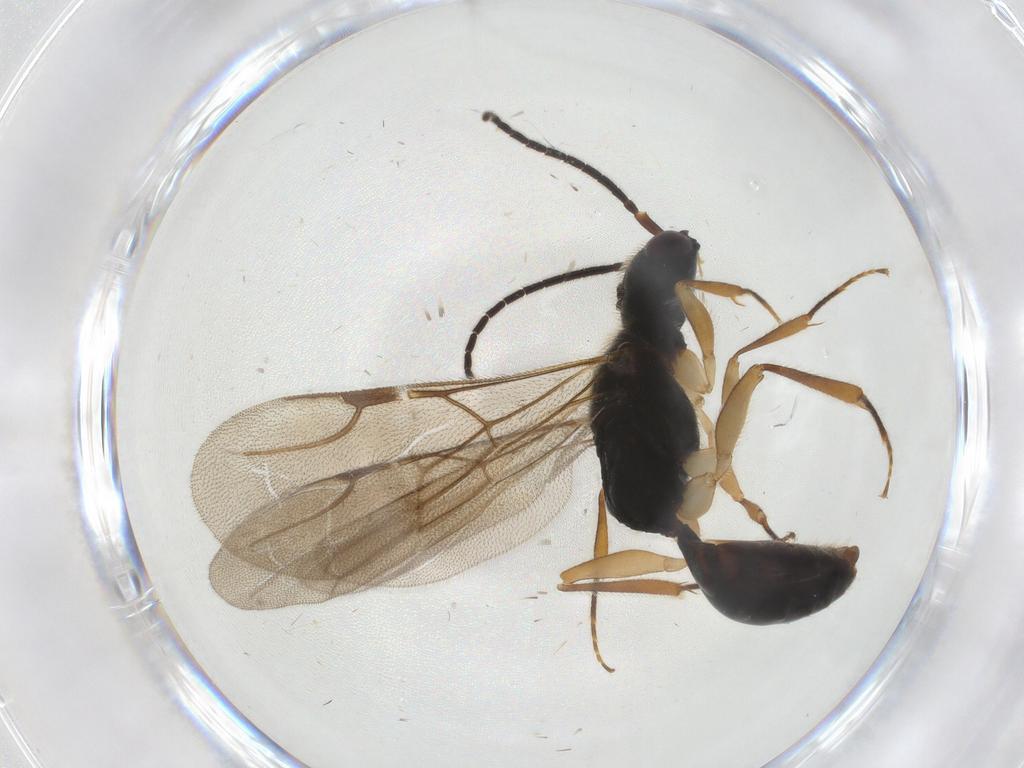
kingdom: Animalia
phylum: Arthropoda
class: Insecta
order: Hymenoptera
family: Bethylidae
